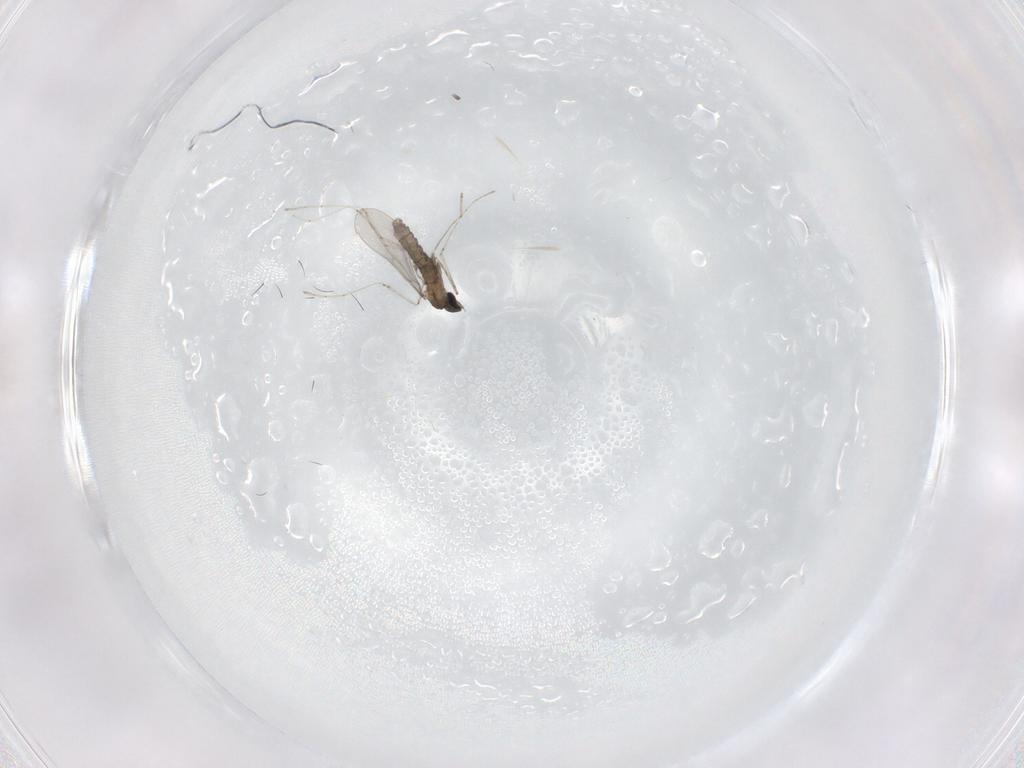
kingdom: Animalia
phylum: Arthropoda
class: Insecta
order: Diptera
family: Cecidomyiidae
